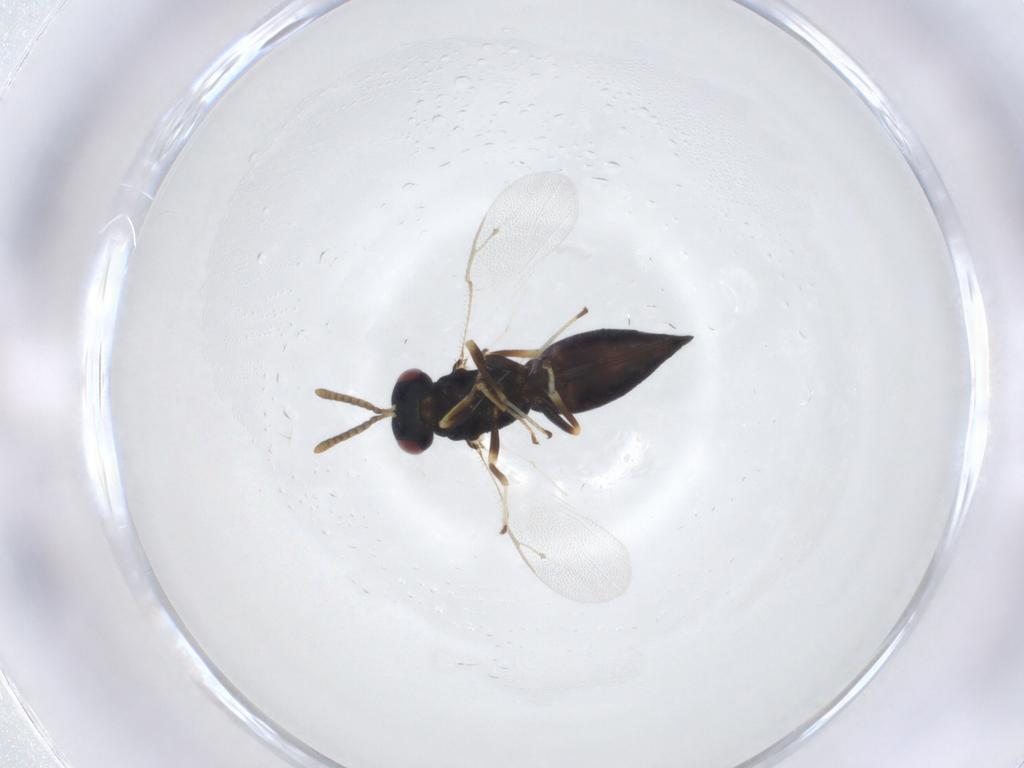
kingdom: Animalia
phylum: Arthropoda
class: Insecta
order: Hymenoptera
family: Pteromalidae
